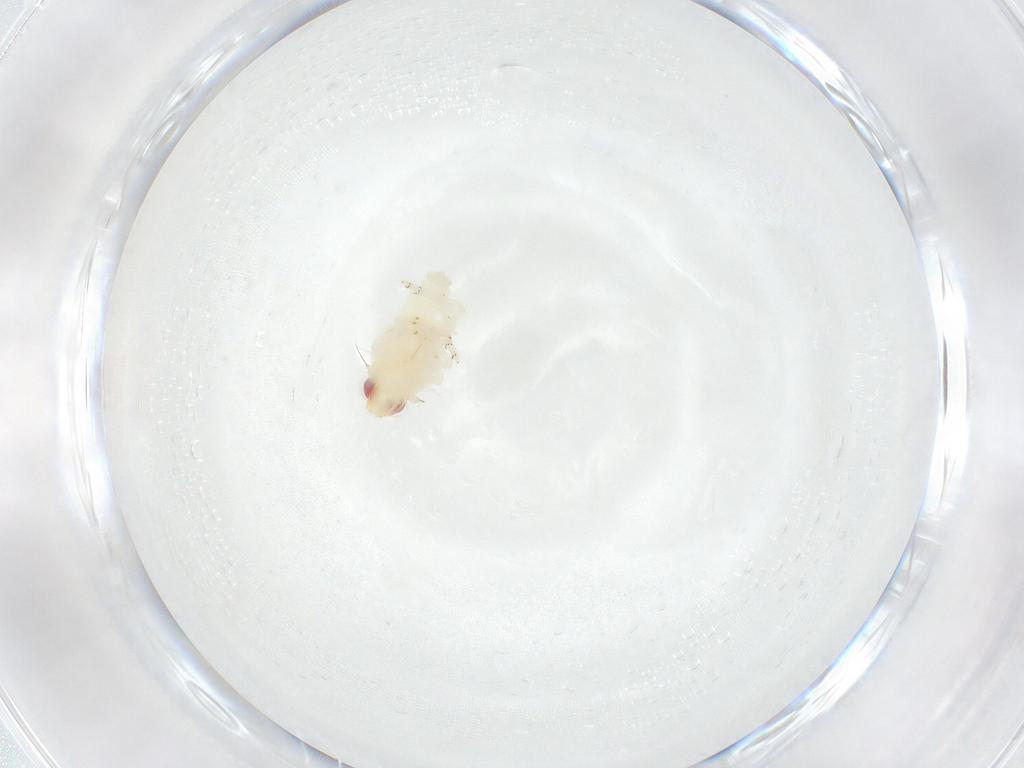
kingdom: Animalia
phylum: Arthropoda
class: Insecta
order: Hemiptera
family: Nogodinidae
